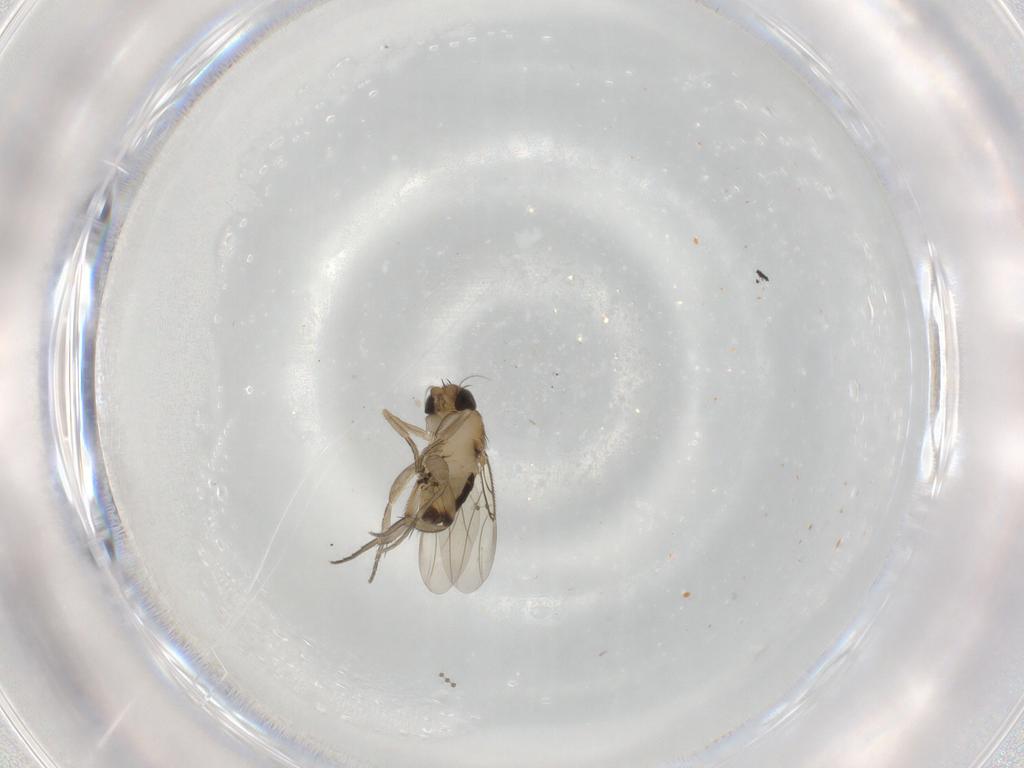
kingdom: Animalia
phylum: Arthropoda
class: Insecta
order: Diptera
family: Phoridae
